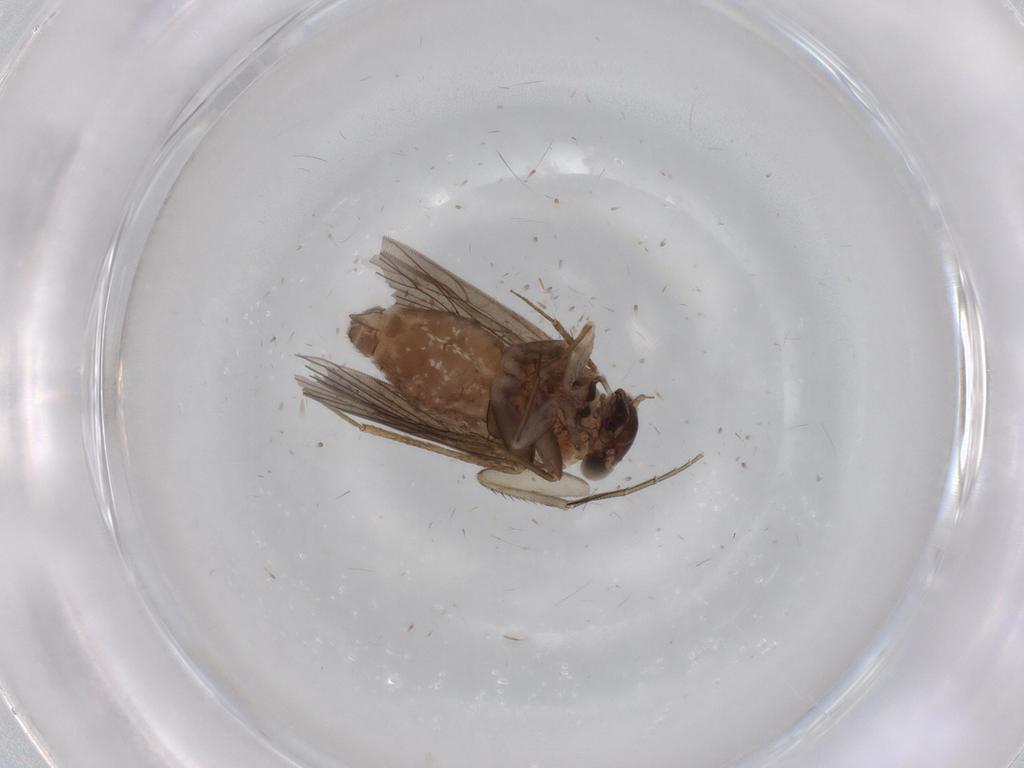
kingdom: Animalia
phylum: Arthropoda
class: Insecta
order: Psocodea
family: Lepidopsocidae
